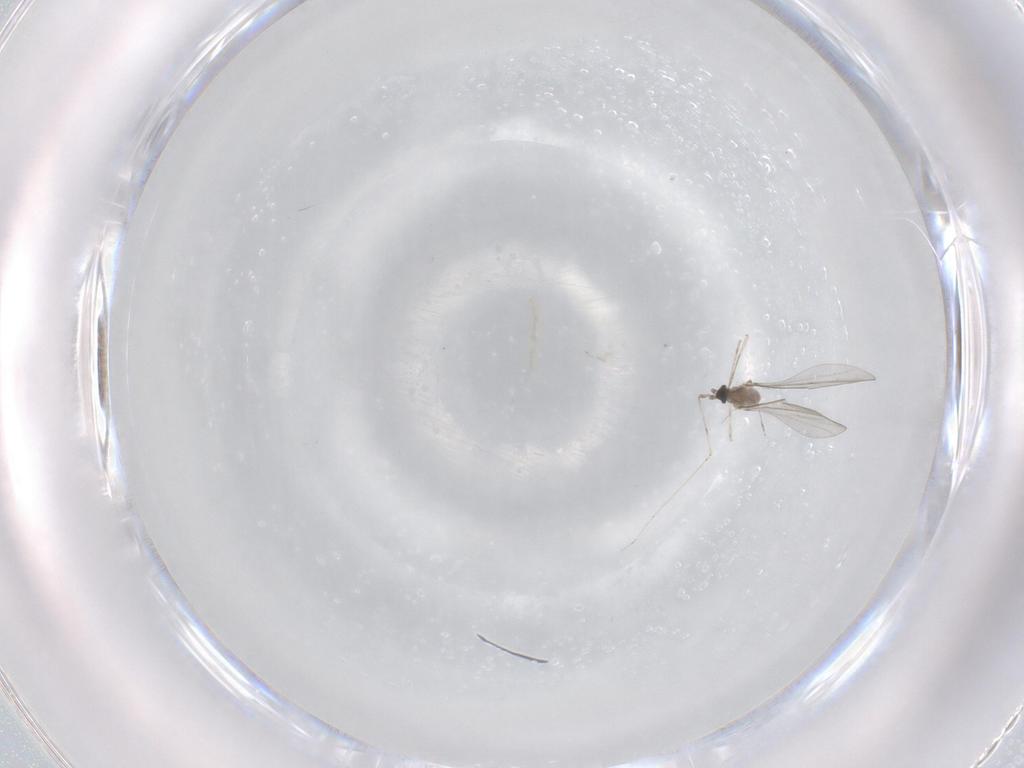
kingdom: Animalia
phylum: Arthropoda
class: Insecta
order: Diptera
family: Cecidomyiidae
